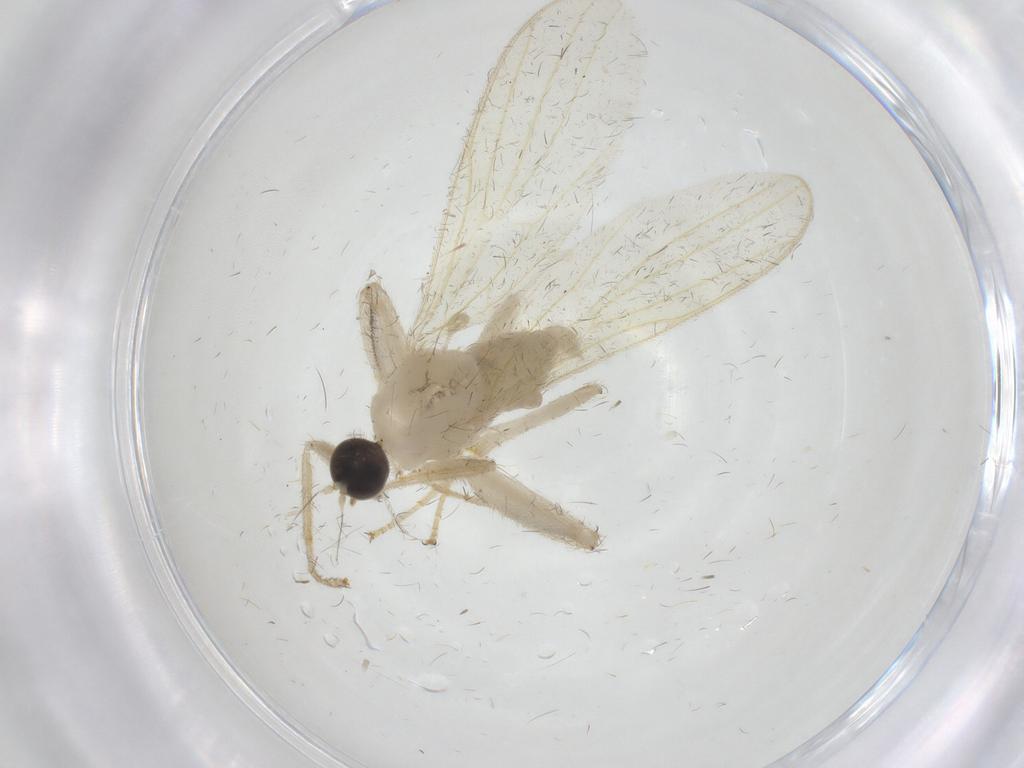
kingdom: Animalia
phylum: Arthropoda
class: Insecta
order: Diptera
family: Hybotidae
